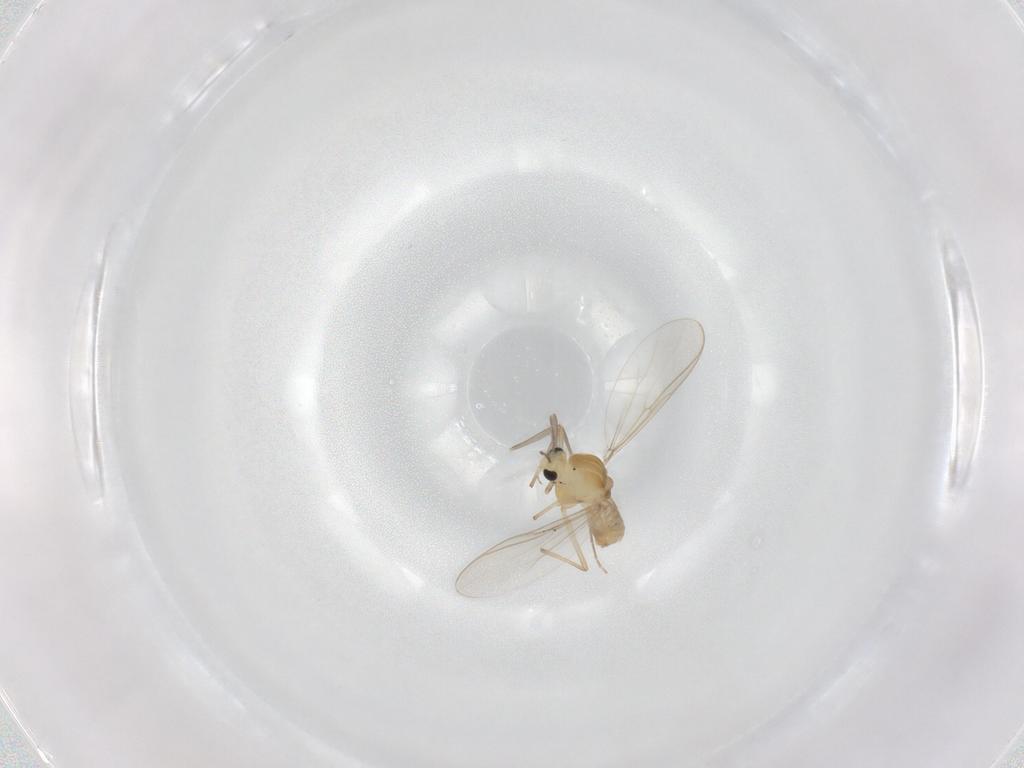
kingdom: Animalia
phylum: Arthropoda
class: Insecta
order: Diptera
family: Chironomidae
